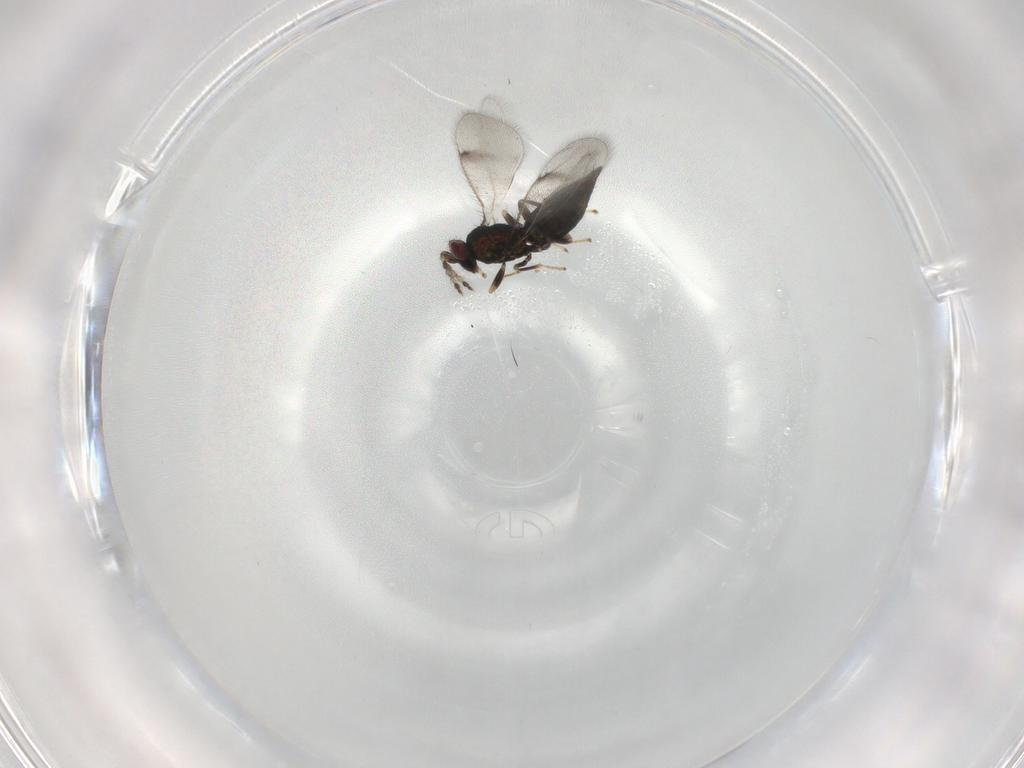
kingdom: Animalia
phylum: Arthropoda
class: Insecta
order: Hymenoptera
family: Eulophidae
